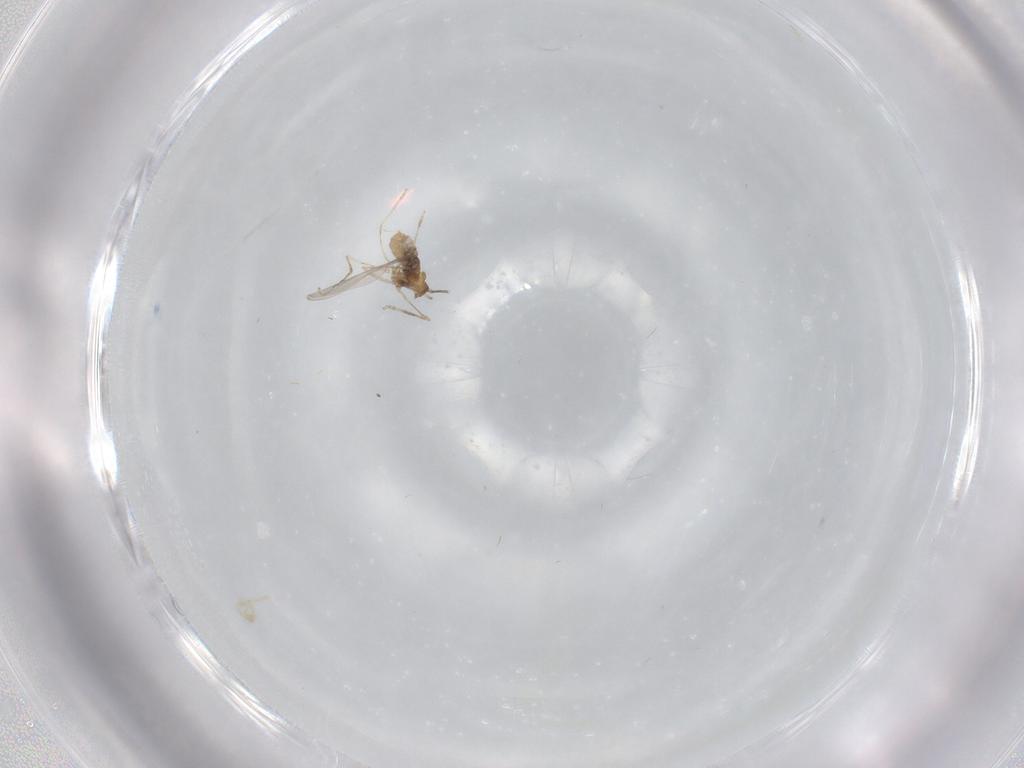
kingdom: Animalia
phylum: Arthropoda
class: Insecta
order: Diptera
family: Cecidomyiidae
